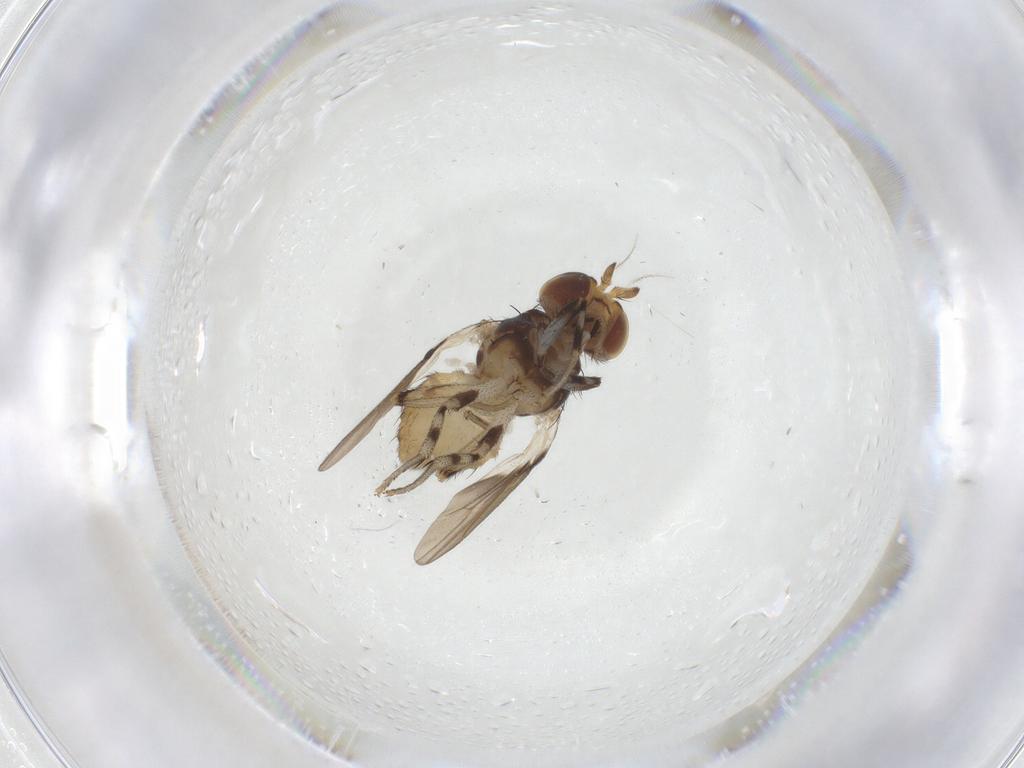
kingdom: Animalia
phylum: Arthropoda
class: Insecta
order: Diptera
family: Lauxaniidae
